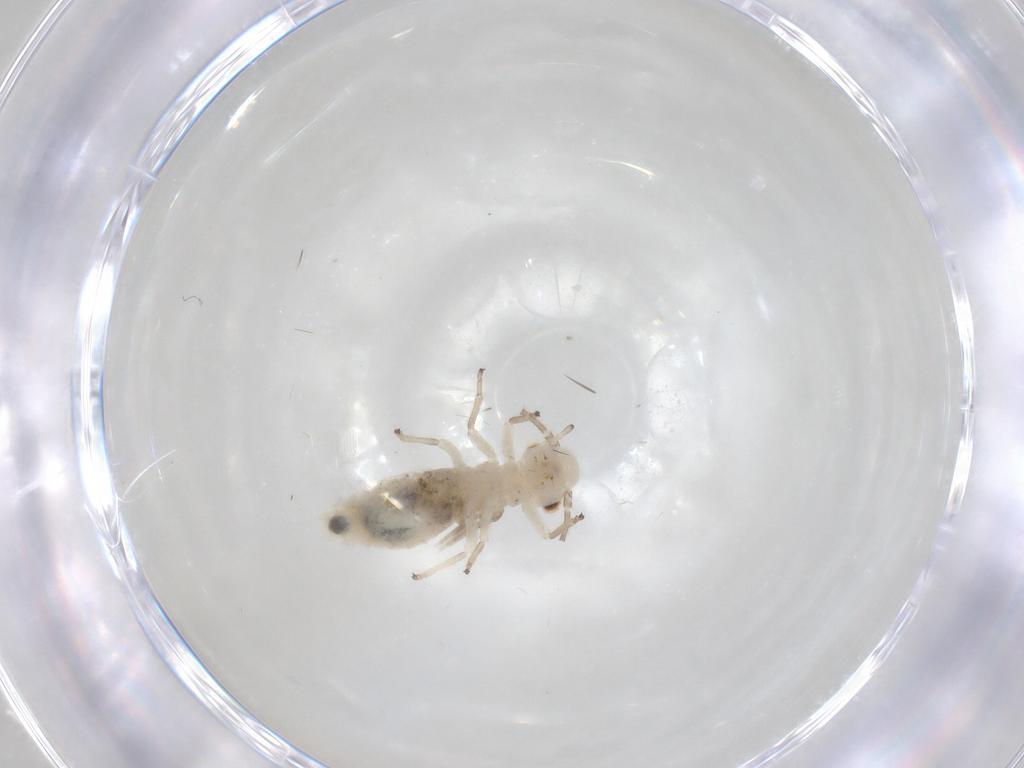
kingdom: Animalia
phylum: Arthropoda
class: Insecta
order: Psocodea
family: Caeciliusidae
